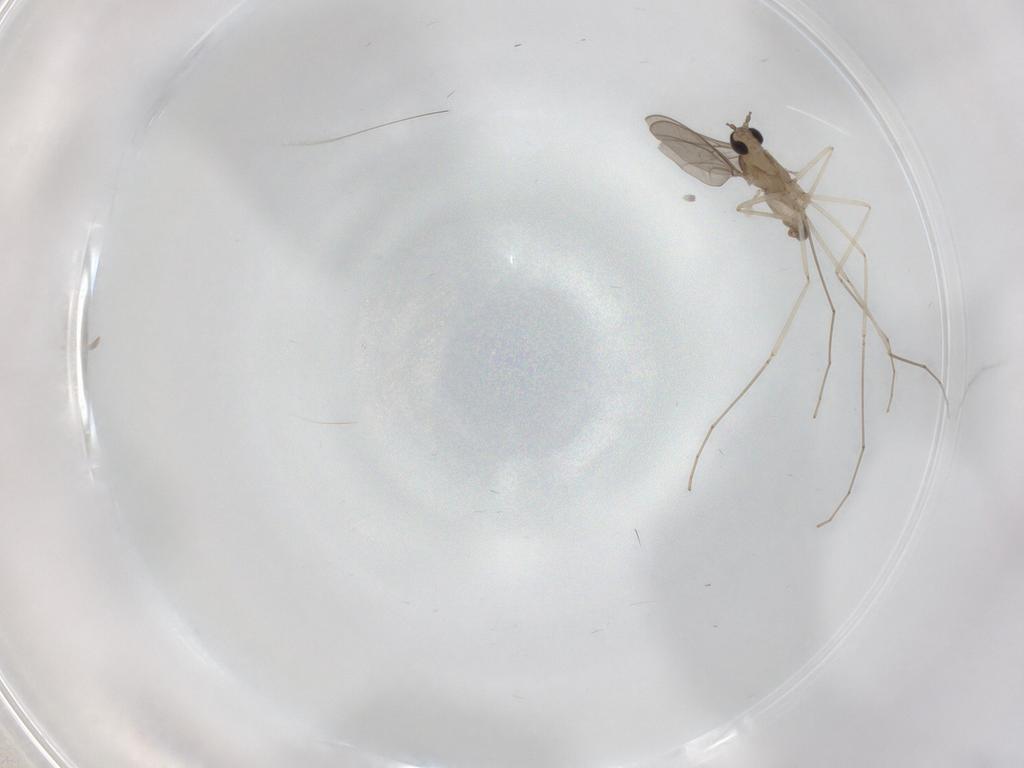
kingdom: Animalia
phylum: Arthropoda
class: Insecta
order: Diptera
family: Cecidomyiidae
